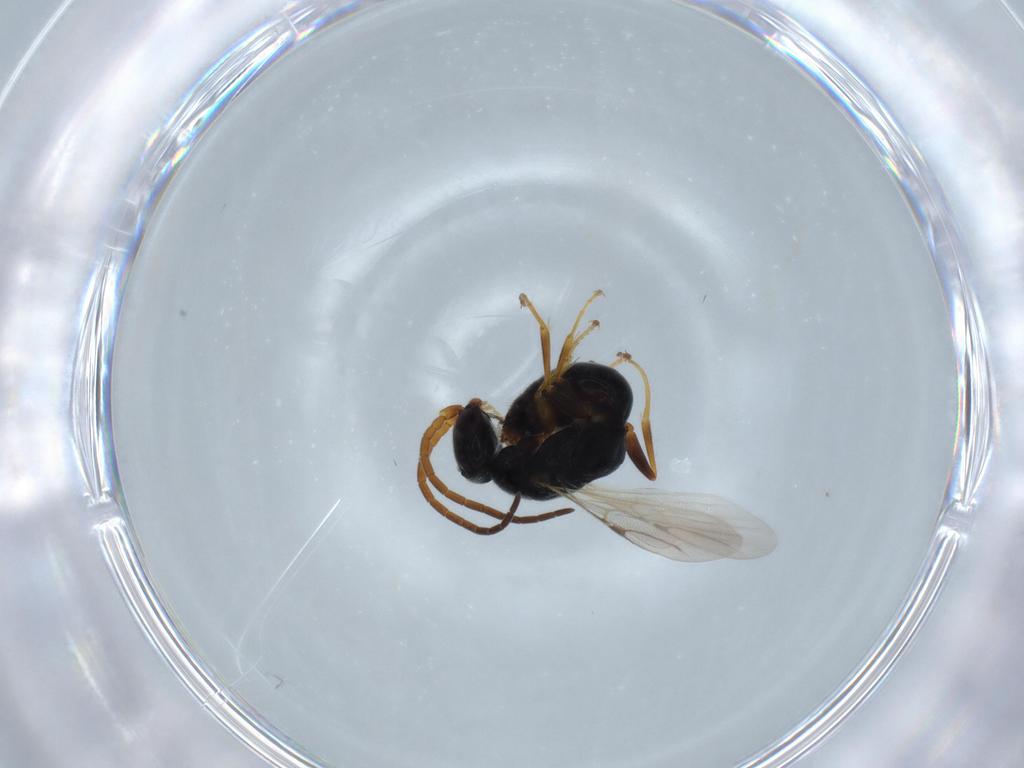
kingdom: Animalia
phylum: Arthropoda
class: Insecta
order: Hymenoptera
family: Bethylidae
